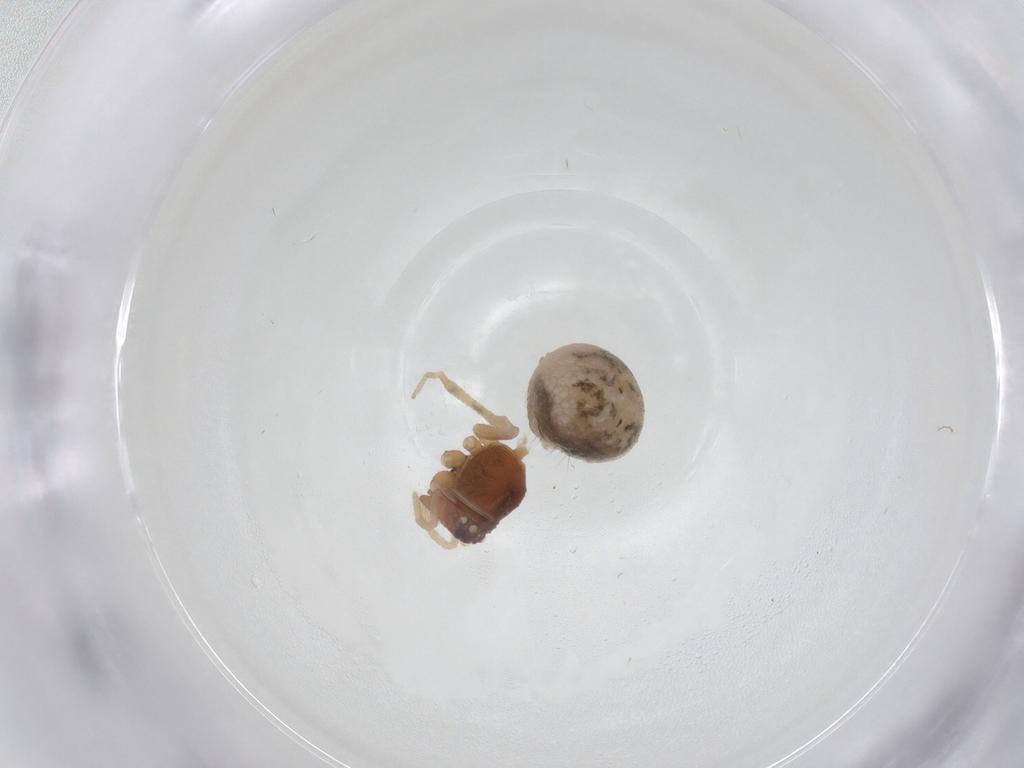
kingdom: Animalia
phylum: Arthropoda
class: Arachnida
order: Araneae
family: Theridiidae
